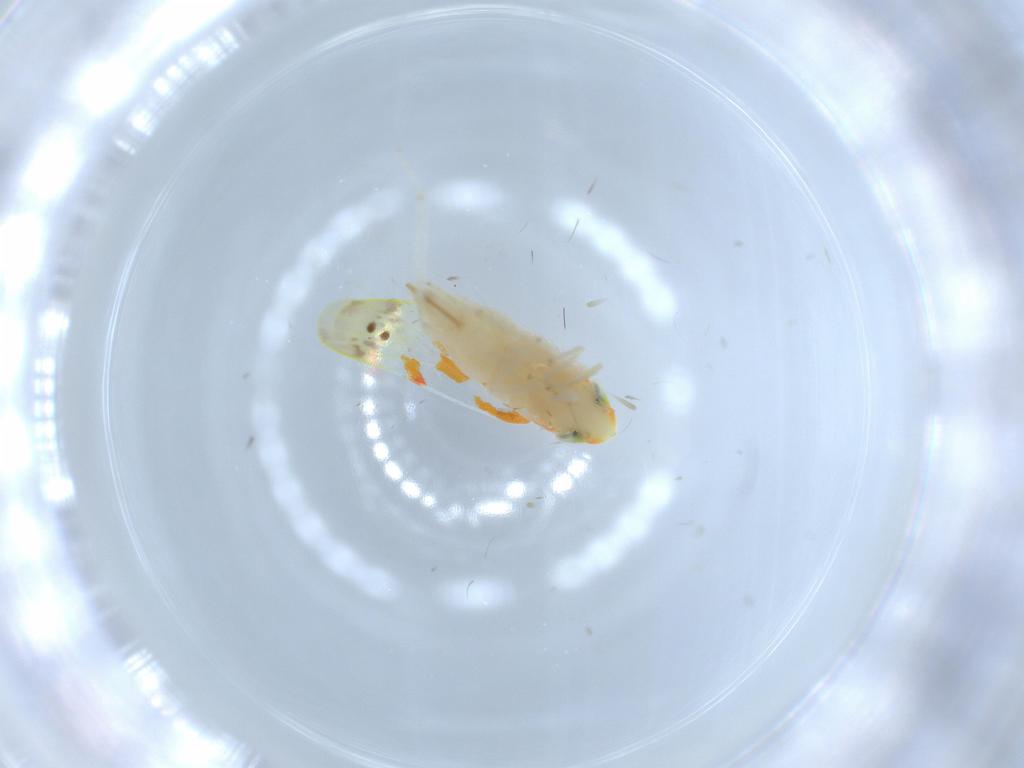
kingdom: Animalia
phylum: Arthropoda
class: Insecta
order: Hemiptera
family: Cicadellidae
